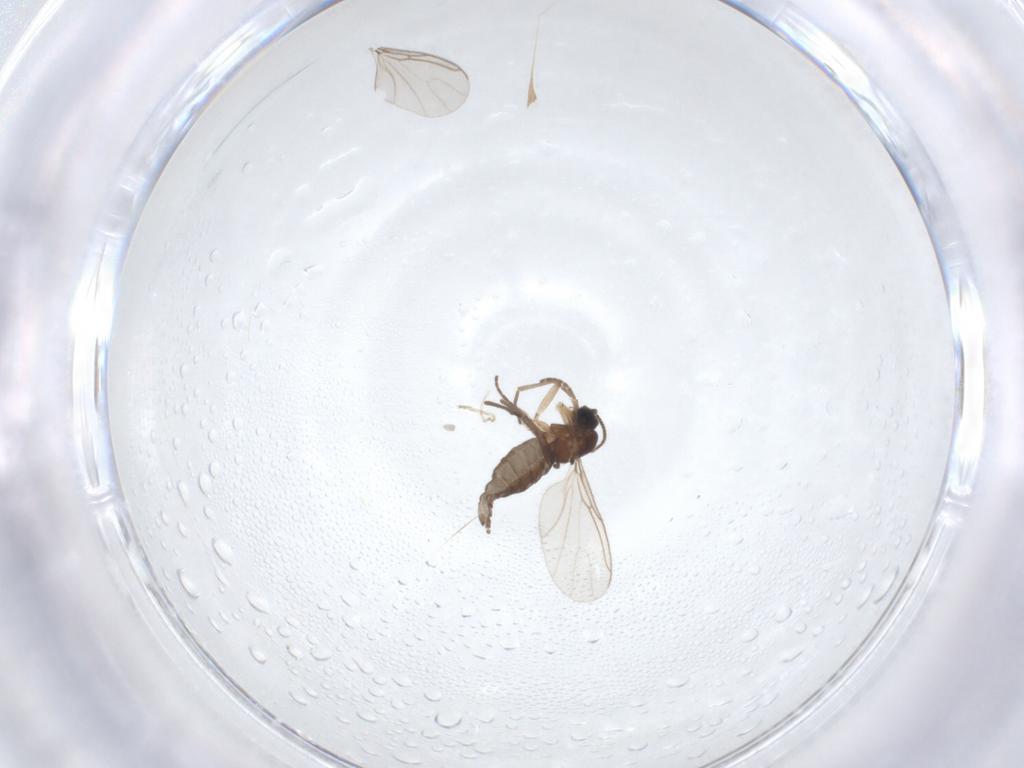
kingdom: Animalia
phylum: Arthropoda
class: Insecta
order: Diptera
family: Sciaridae
